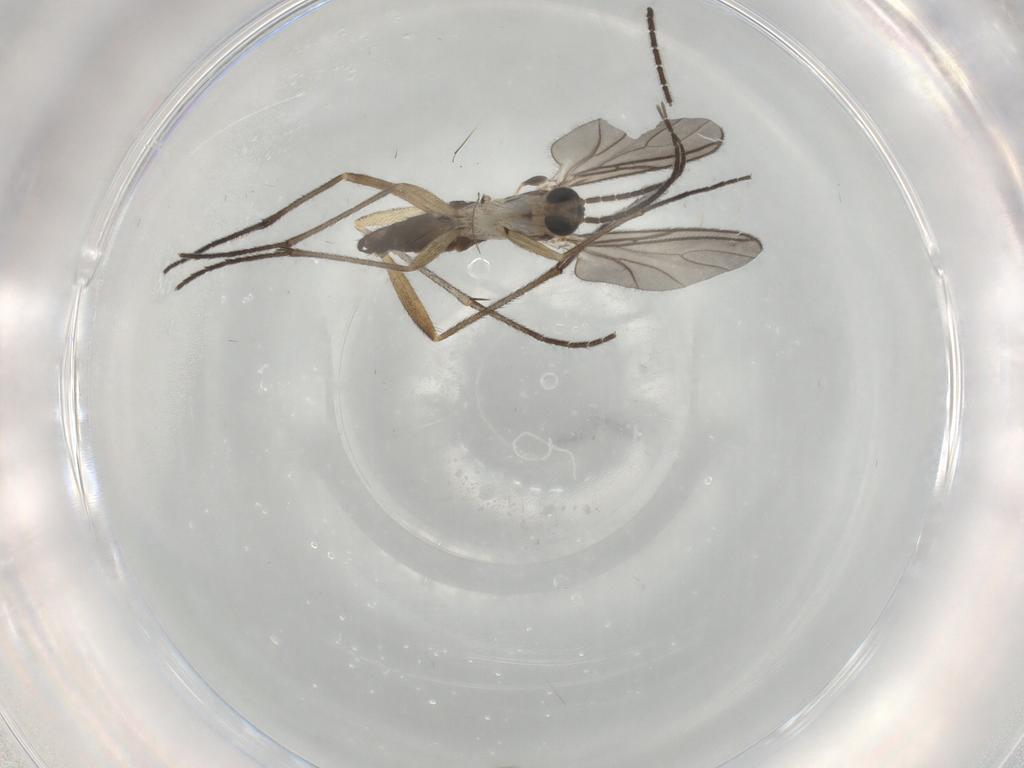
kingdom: Animalia
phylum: Arthropoda
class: Insecta
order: Diptera
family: Sciaridae
